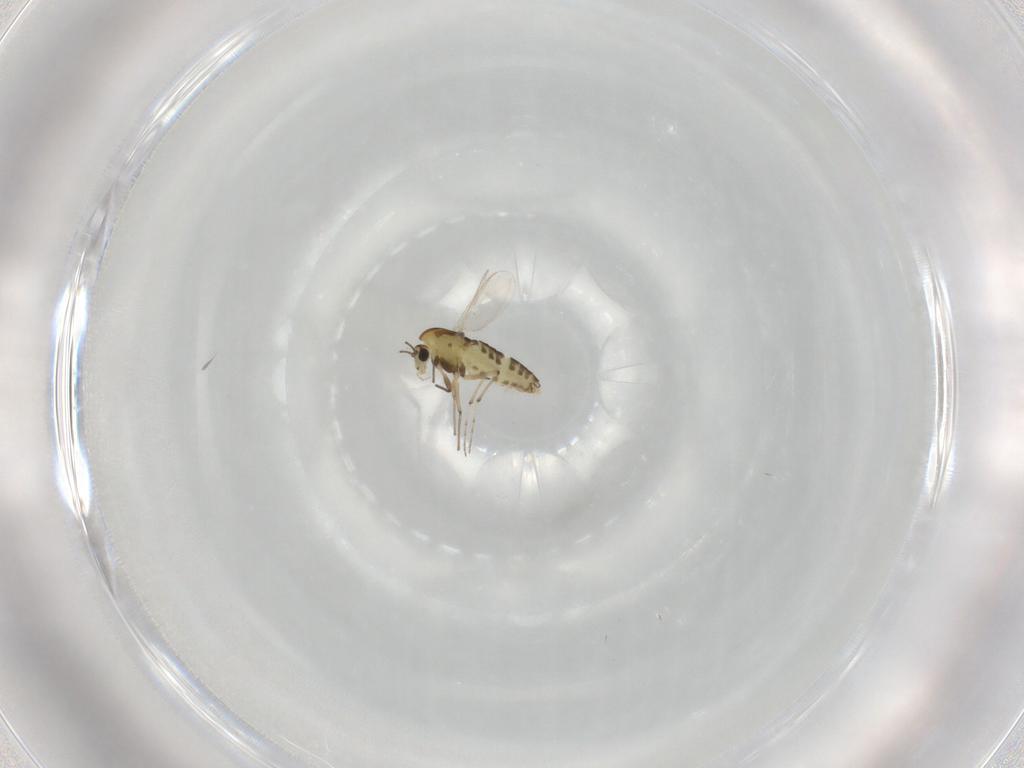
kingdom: Animalia
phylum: Arthropoda
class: Insecta
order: Diptera
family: Chironomidae
